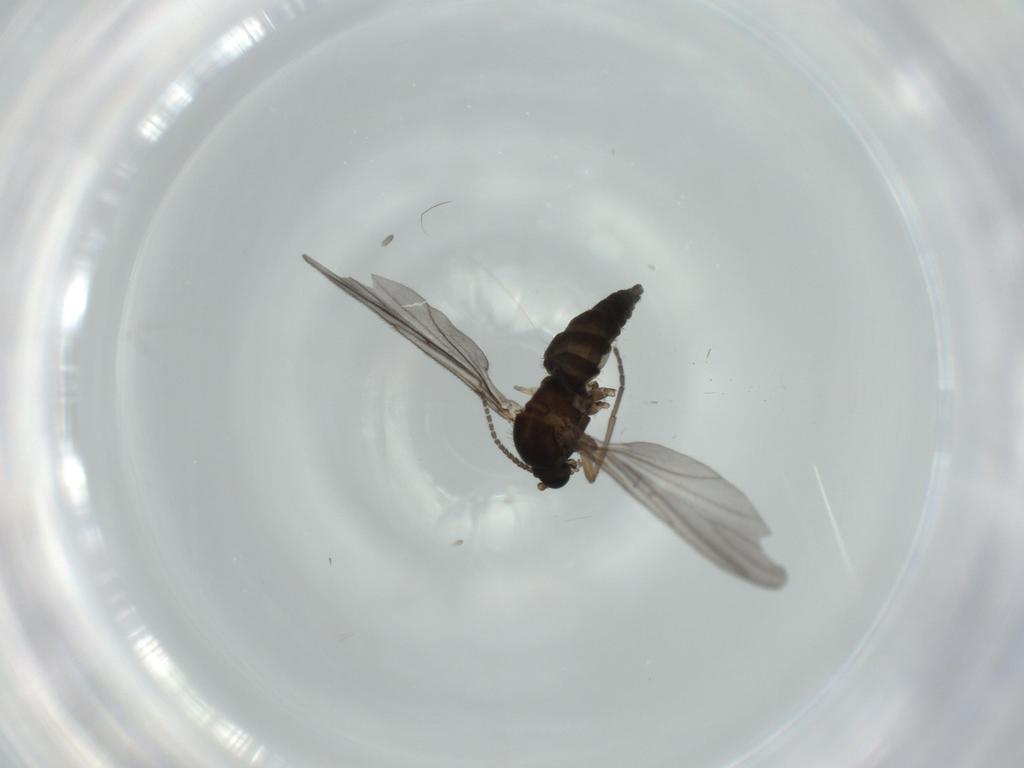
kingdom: Animalia
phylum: Arthropoda
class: Insecta
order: Diptera
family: Sciaridae
